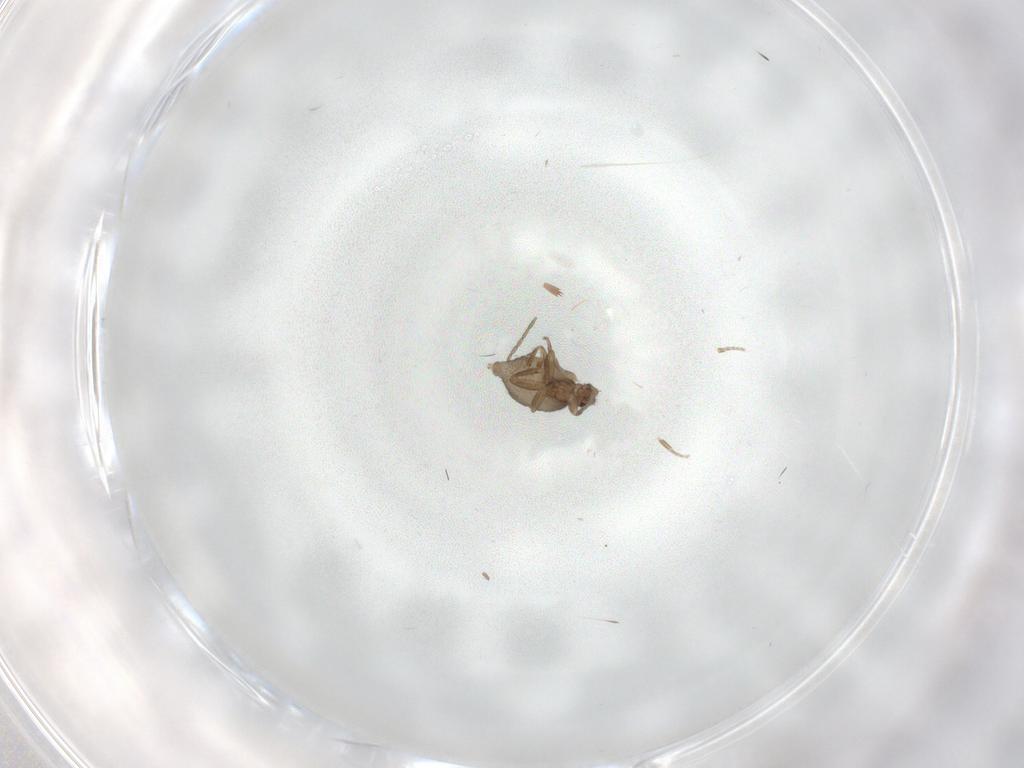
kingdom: Animalia
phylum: Arthropoda
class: Insecta
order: Diptera
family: Phoridae
